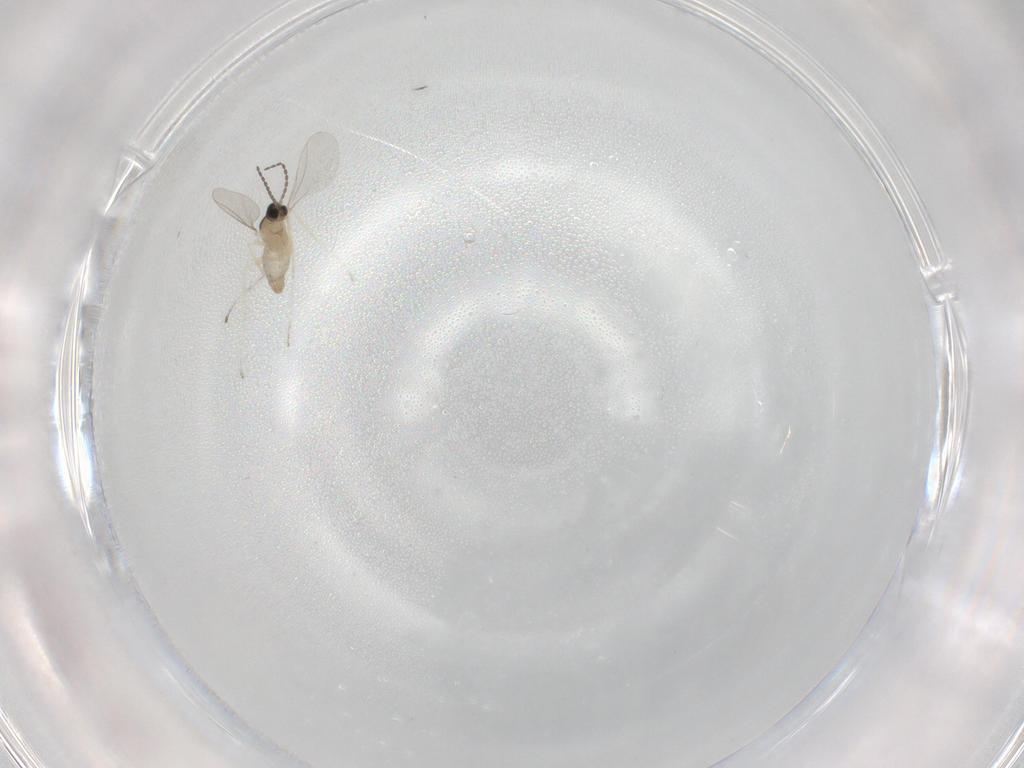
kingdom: Animalia
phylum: Arthropoda
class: Insecta
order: Diptera
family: Cecidomyiidae
